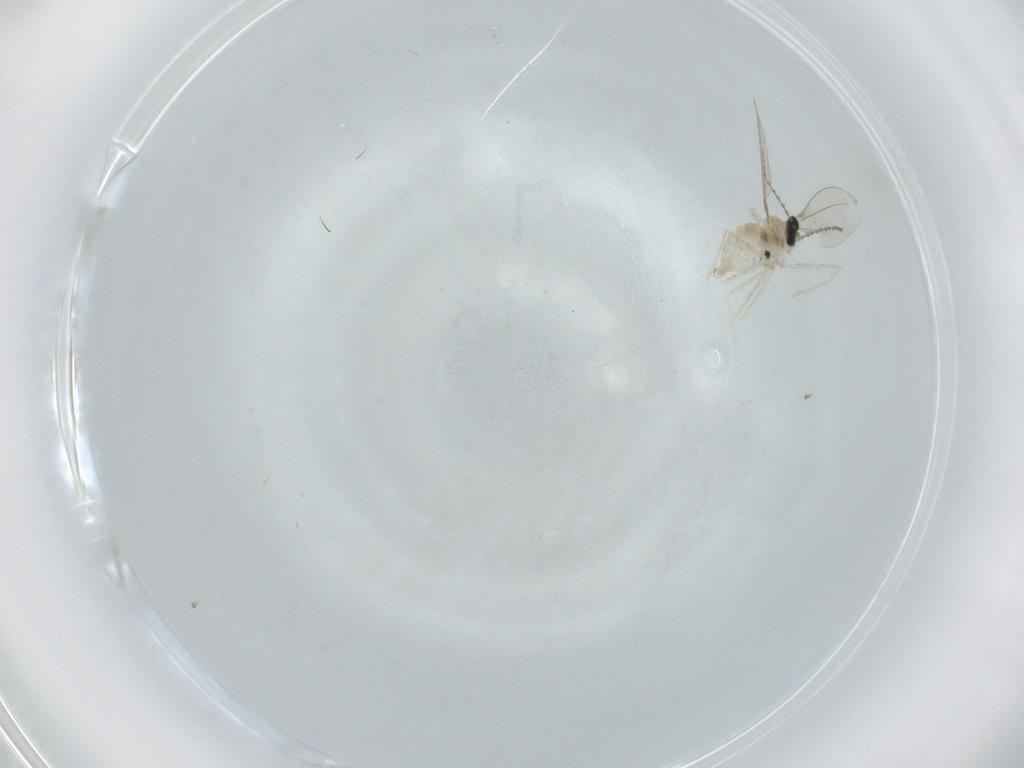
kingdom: Animalia
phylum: Arthropoda
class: Insecta
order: Diptera
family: Cecidomyiidae
